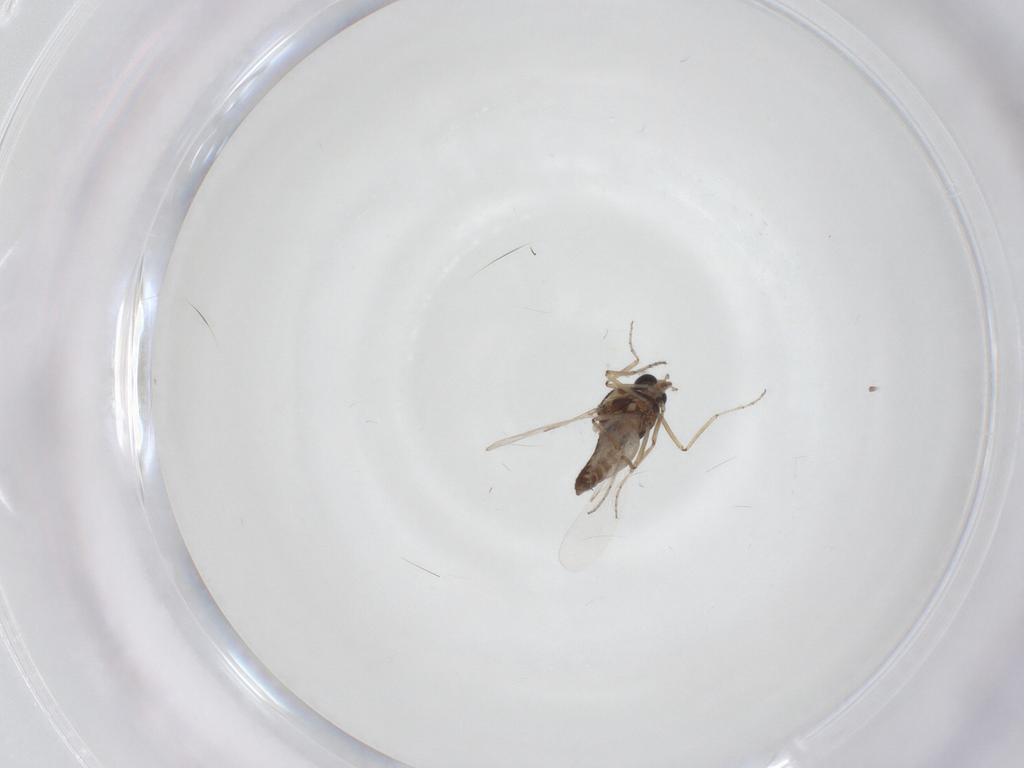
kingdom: Animalia
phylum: Arthropoda
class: Insecta
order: Diptera
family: Ceratopogonidae
